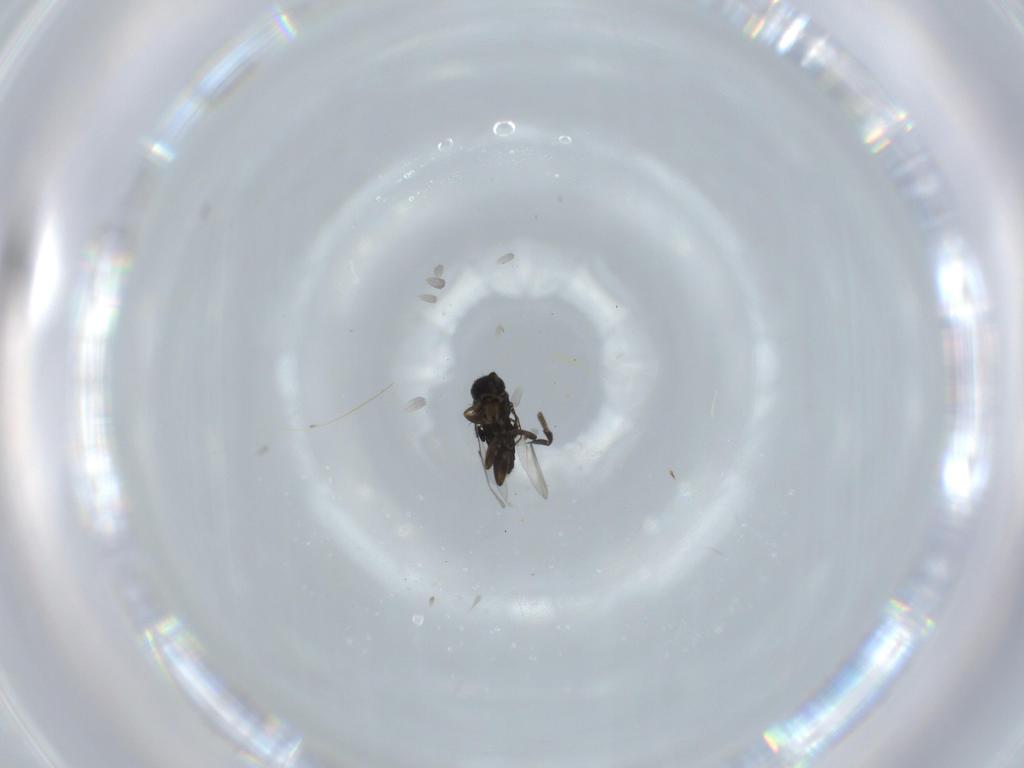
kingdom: Animalia
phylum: Arthropoda
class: Insecta
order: Diptera
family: Phoridae
